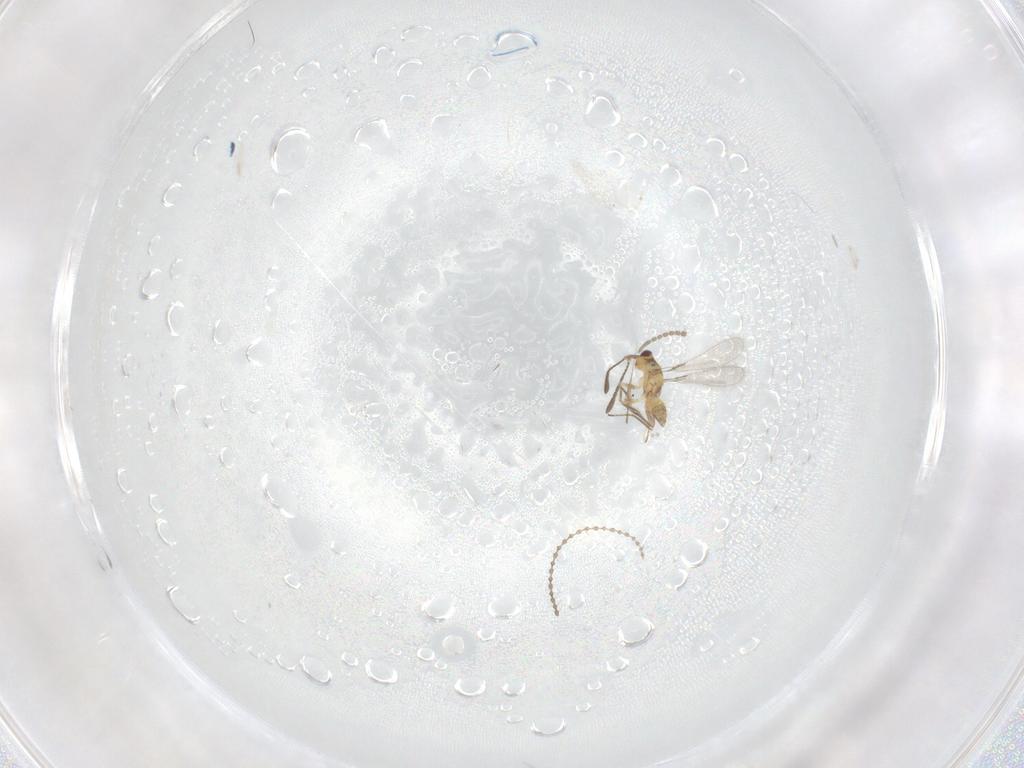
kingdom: Animalia
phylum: Arthropoda
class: Insecta
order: Hymenoptera
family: Mymaridae
